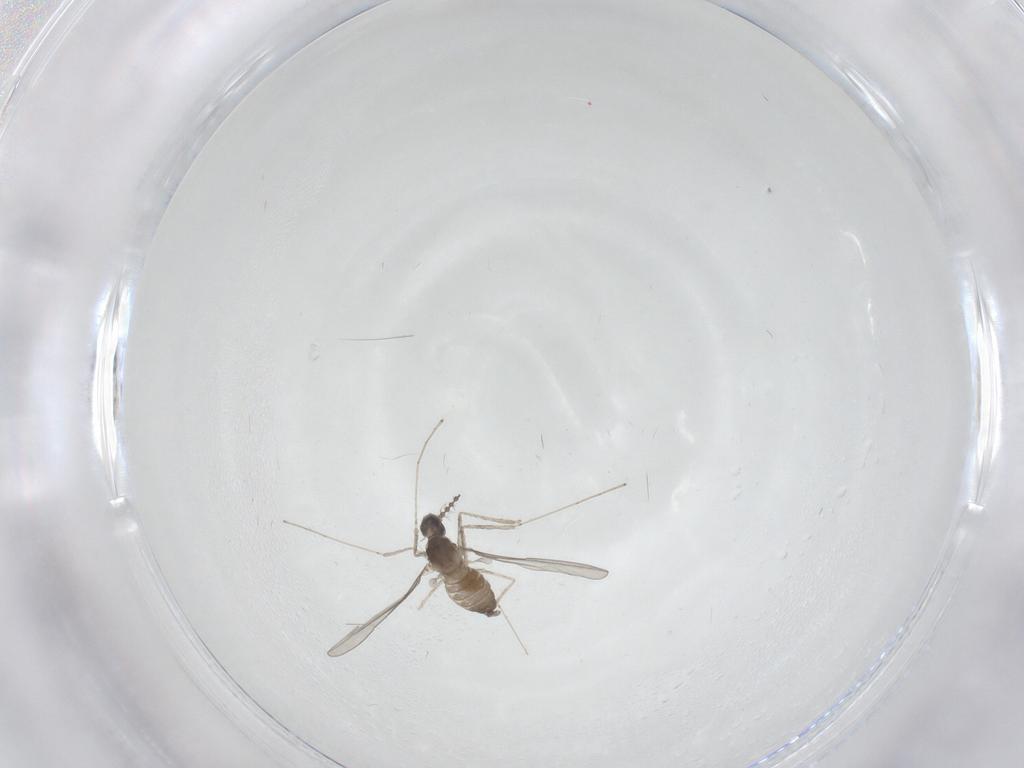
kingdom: Animalia
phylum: Arthropoda
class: Insecta
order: Diptera
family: Cecidomyiidae
